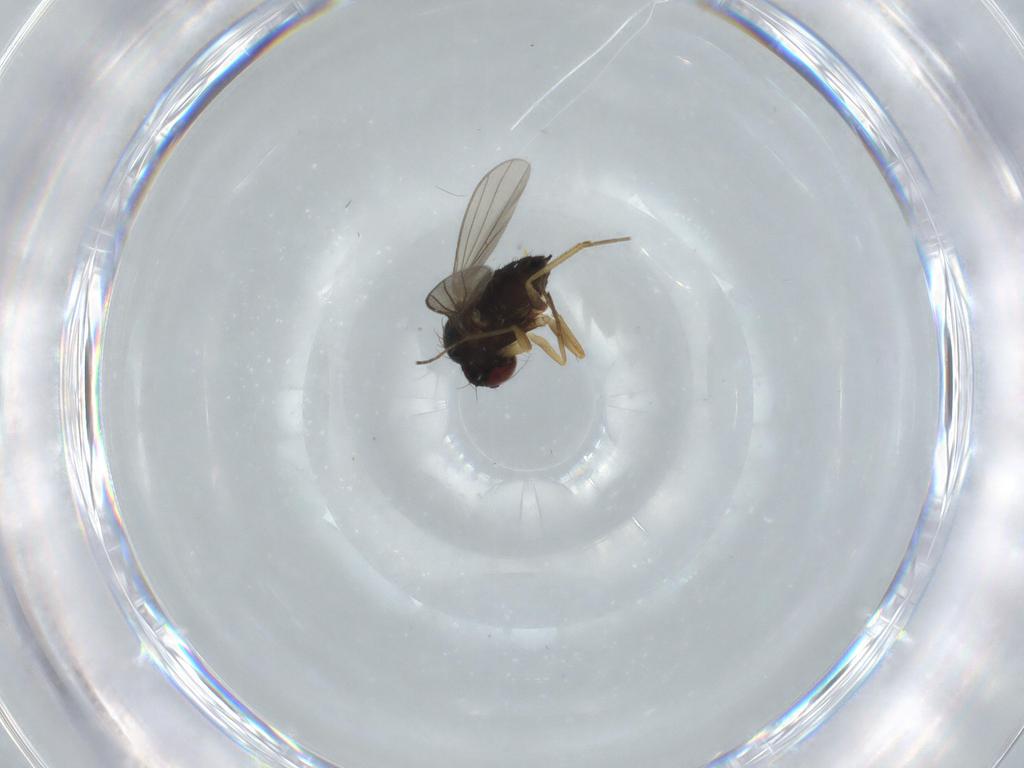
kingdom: Animalia
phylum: Arthropoda
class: Insecta
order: Diptera
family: Dolichopodidae
